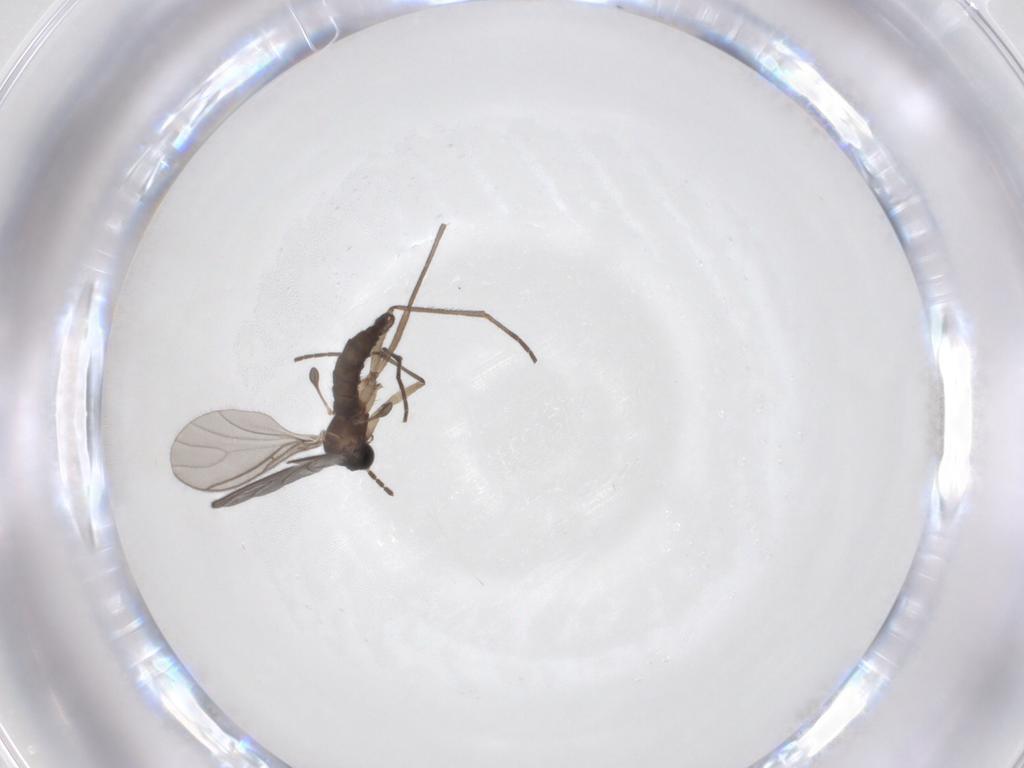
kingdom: Animalia
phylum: Arthropoda
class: Insecta
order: Diptera
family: Sciaridae
